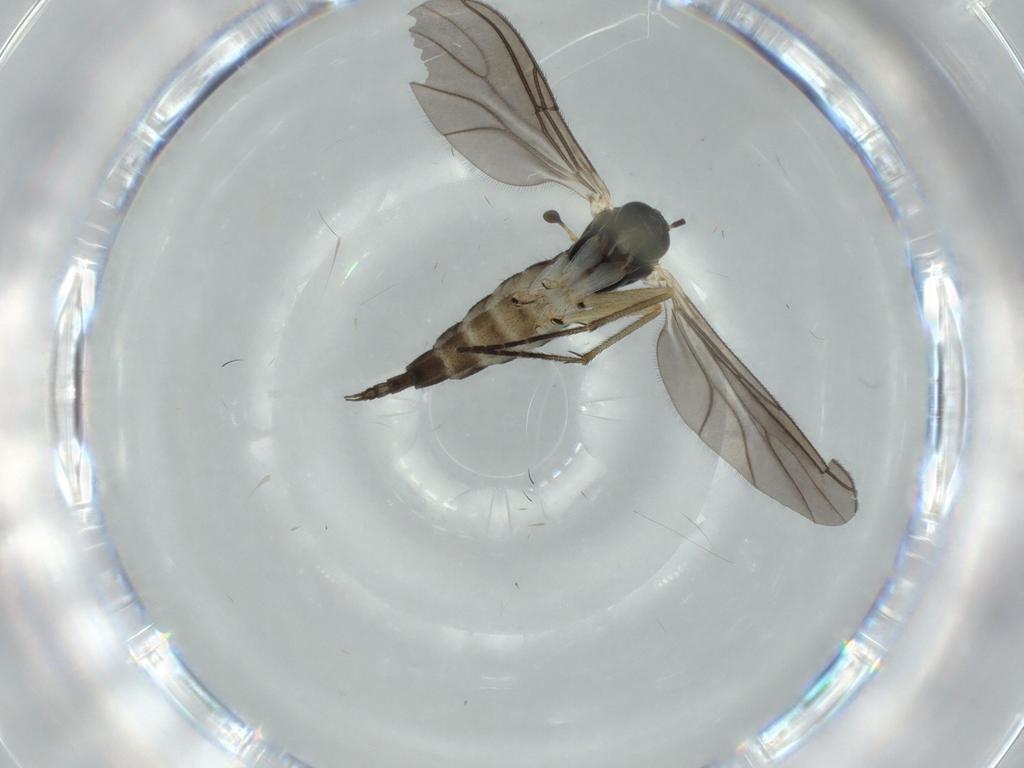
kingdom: Animalia
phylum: Arthropoda
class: Insecta
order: Diptera
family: Sciaridae
